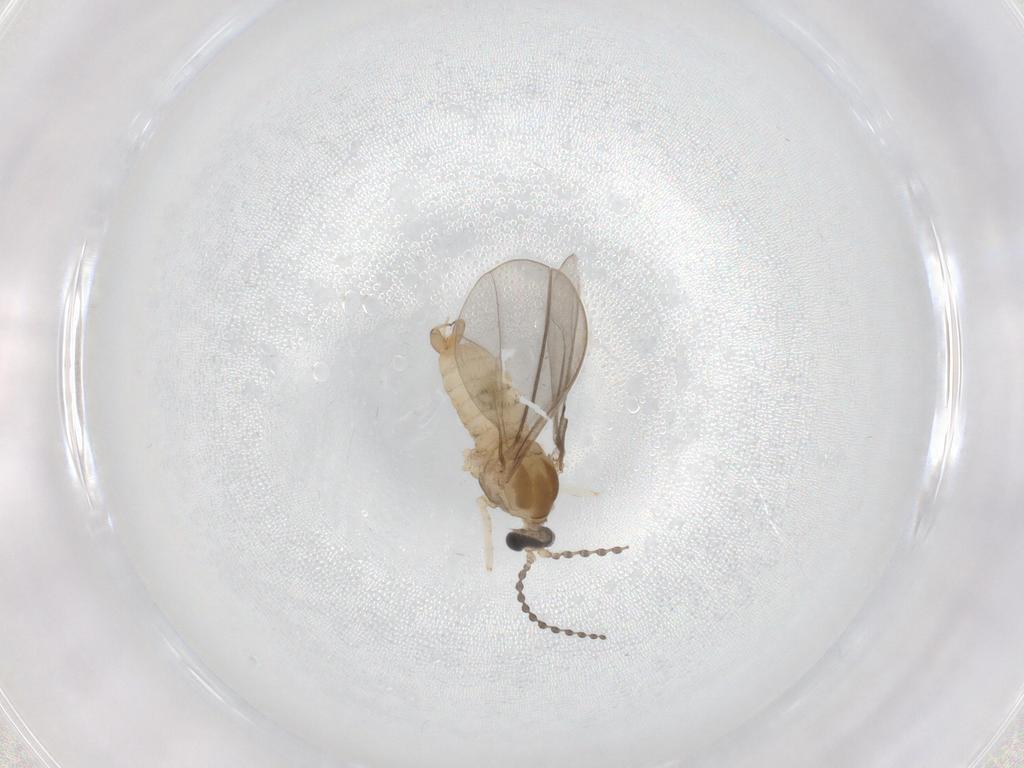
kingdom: Animalia
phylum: Arthropoda
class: Insecta
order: Diptera
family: Cecidomyiidae
